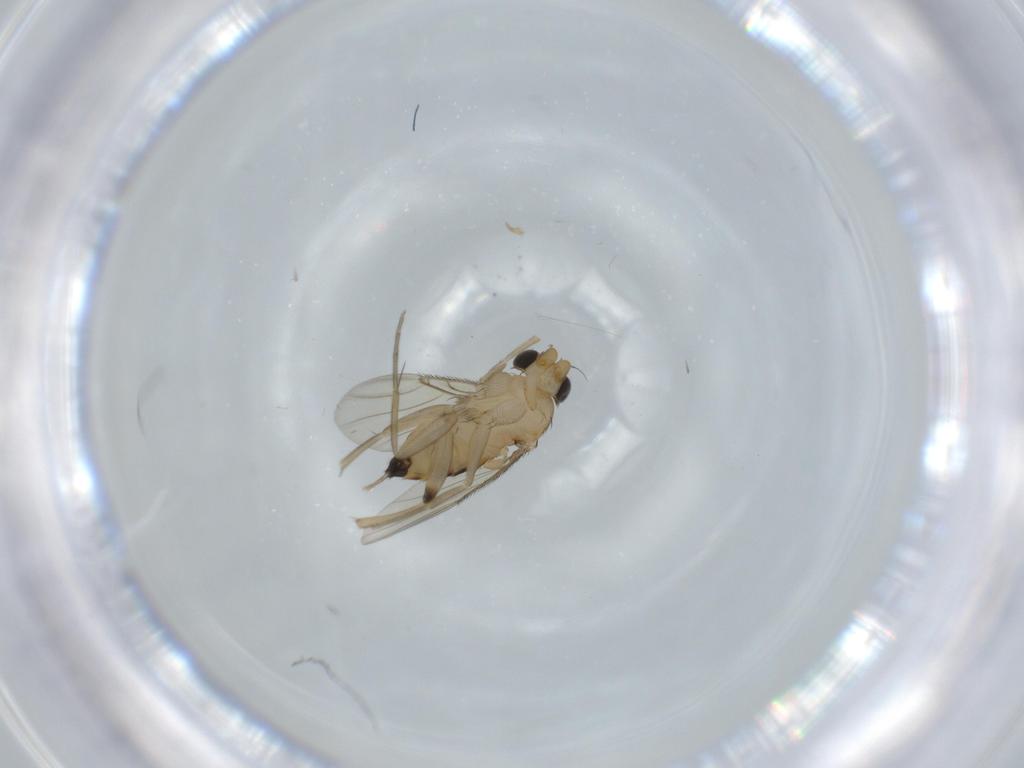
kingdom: Animalia
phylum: Arthropoda
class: Insecta
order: Diptera
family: Phoridae
